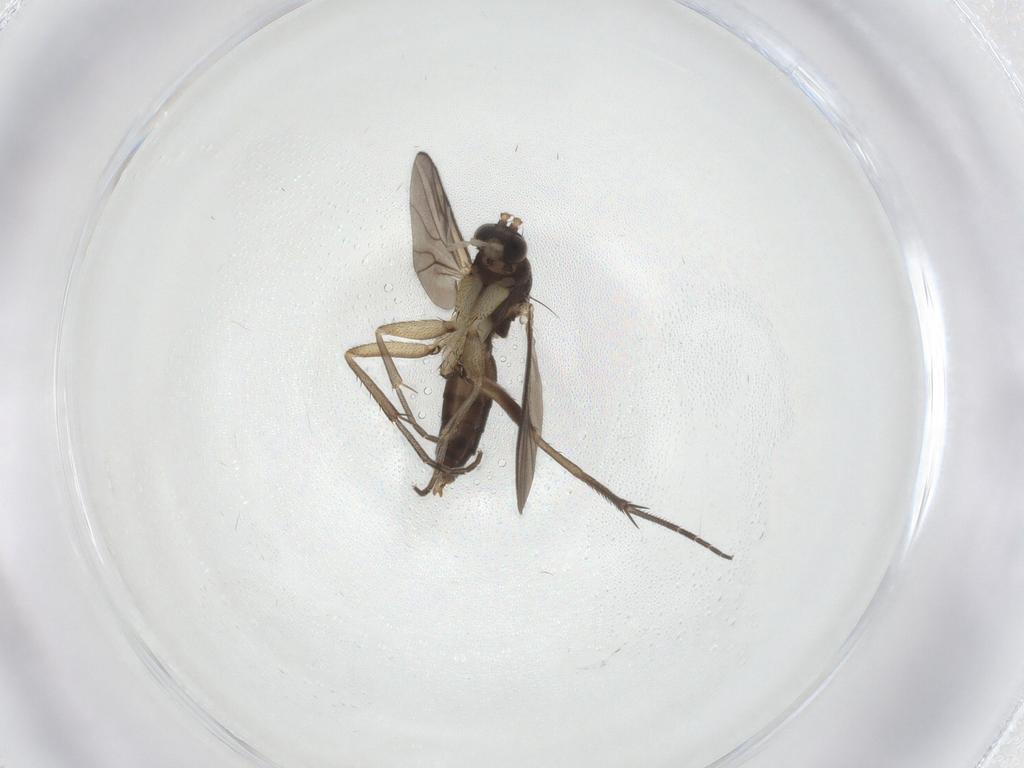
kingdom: Animalia
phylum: Arthropoda
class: Insecta
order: Diptera
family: Mycetophilidae
